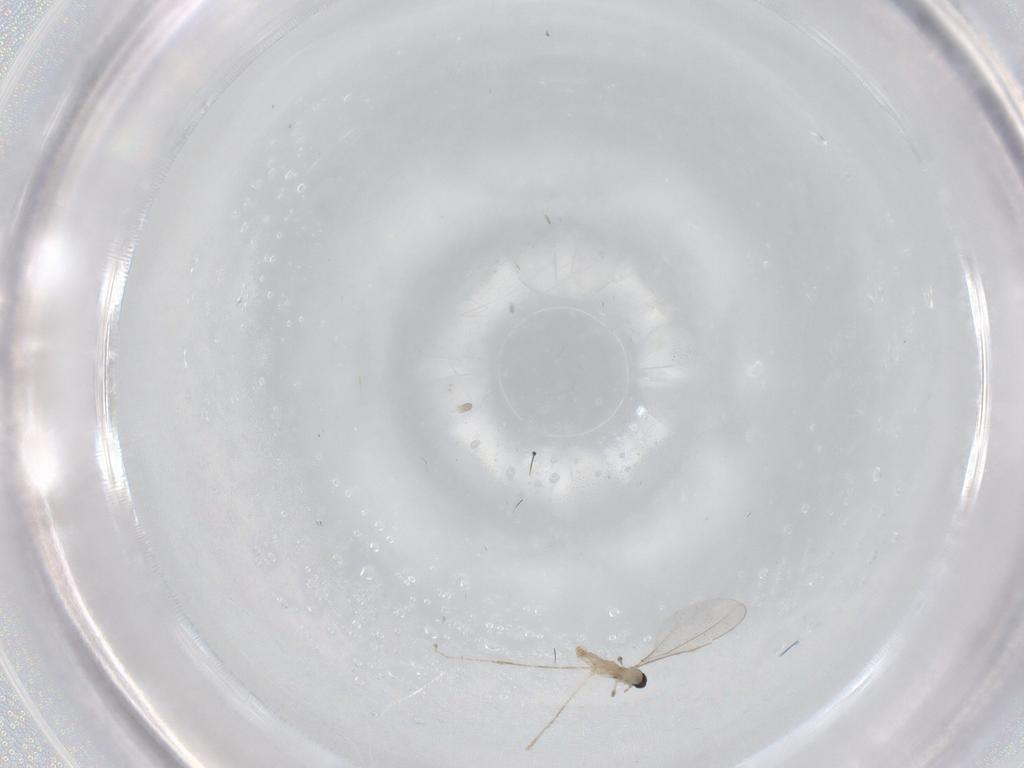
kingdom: Animalia
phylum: Arthropoda
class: Insecta
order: Diptera
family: Cecidomyiidae
